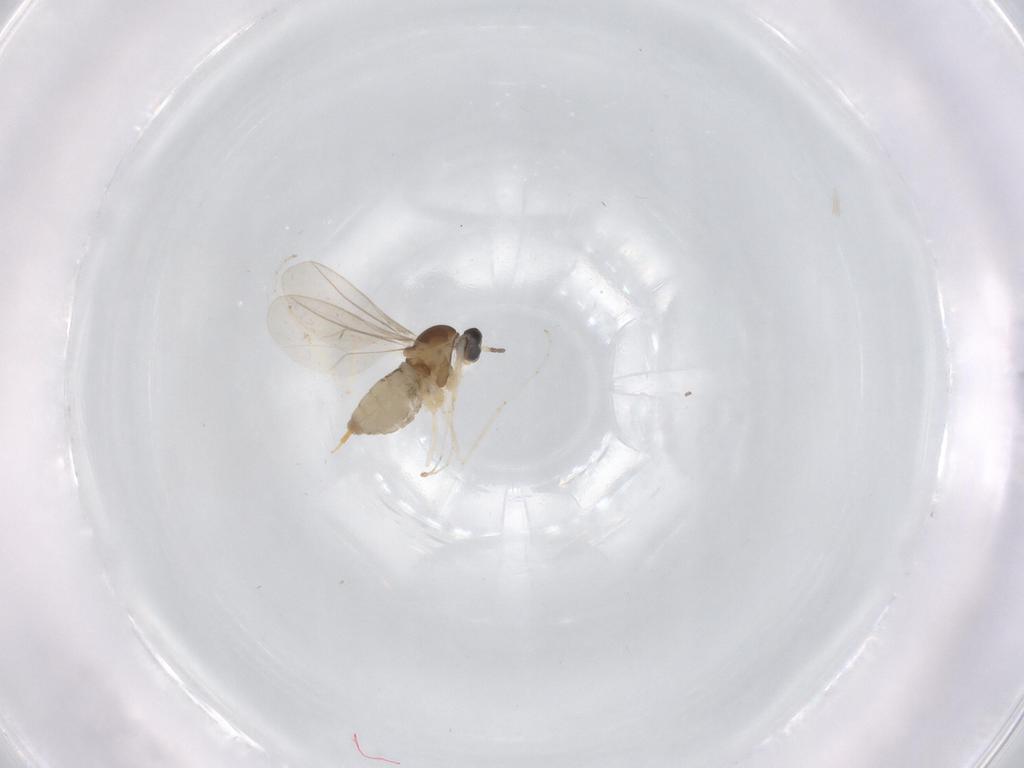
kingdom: Animalia
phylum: Arthropoda
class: Insecta
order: Diptera
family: Cecidomyiidae
